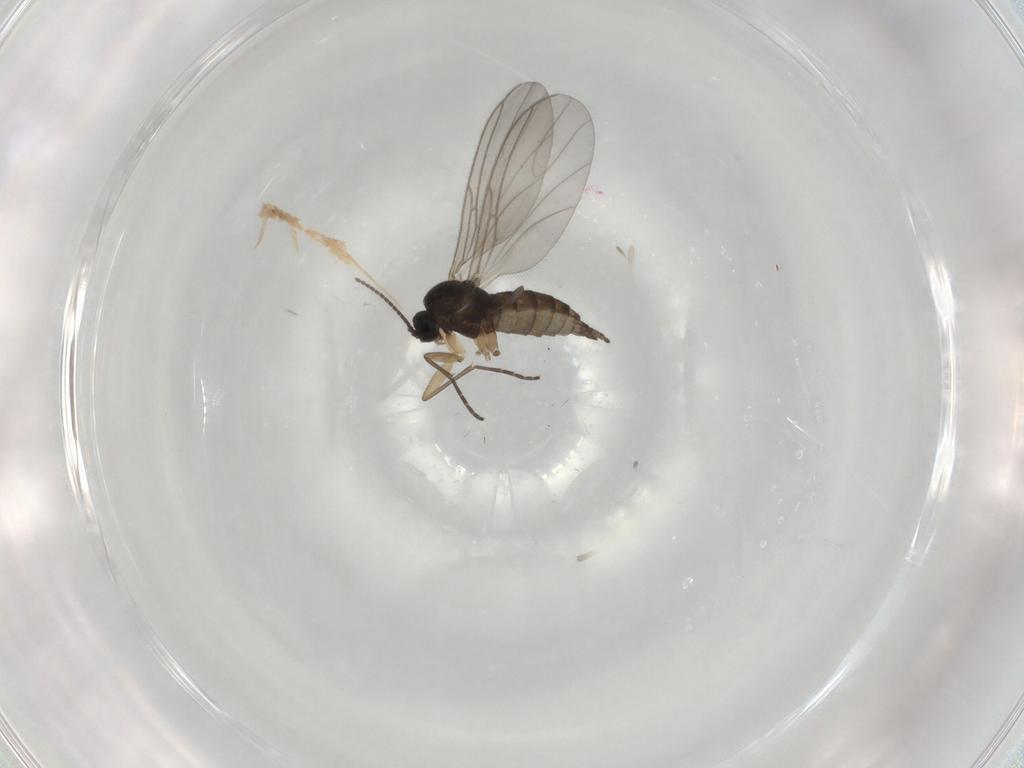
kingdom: Animalia
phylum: Arthropoda
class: Insecta
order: Diptera
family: Sciaridae
